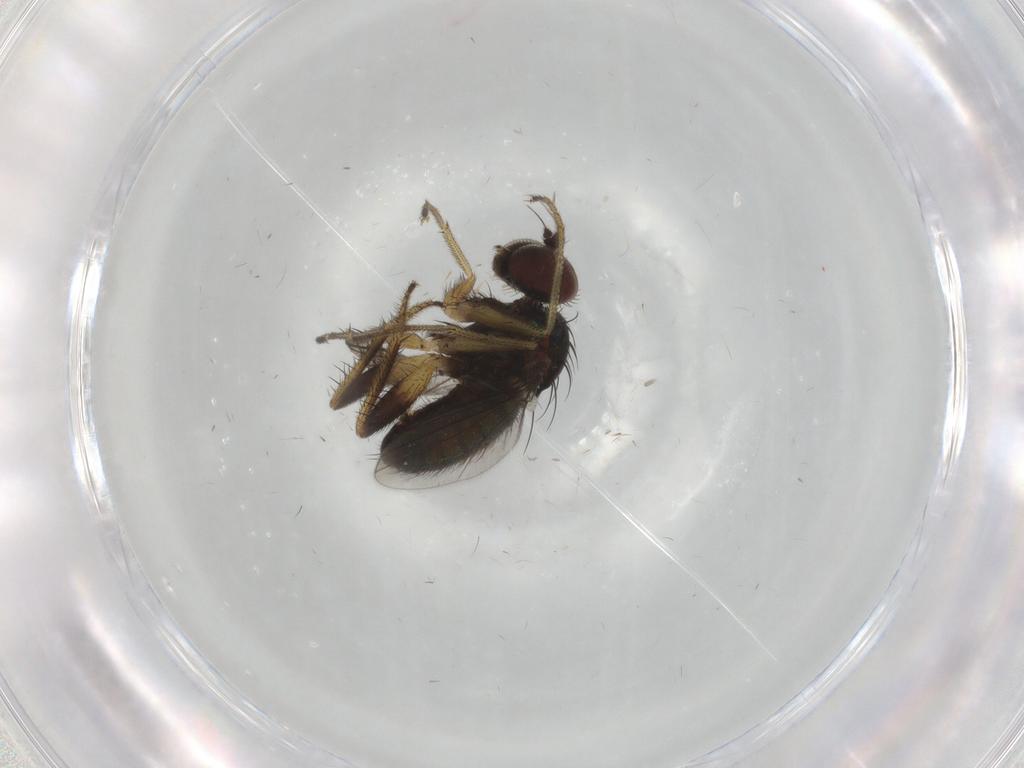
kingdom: Animalia
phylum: Arthropoda
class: Insecta
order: Diptera
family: Dolichopodidae
